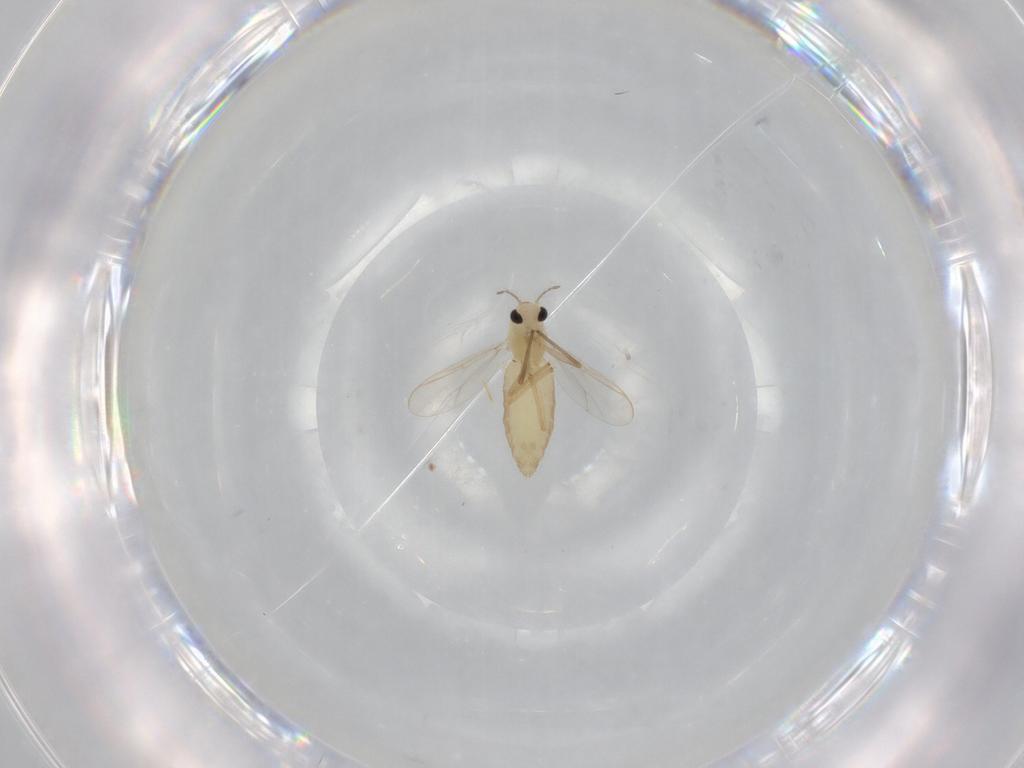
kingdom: Animalia
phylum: Arthropoda
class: Insecta
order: Diptera
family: Chironomidae
